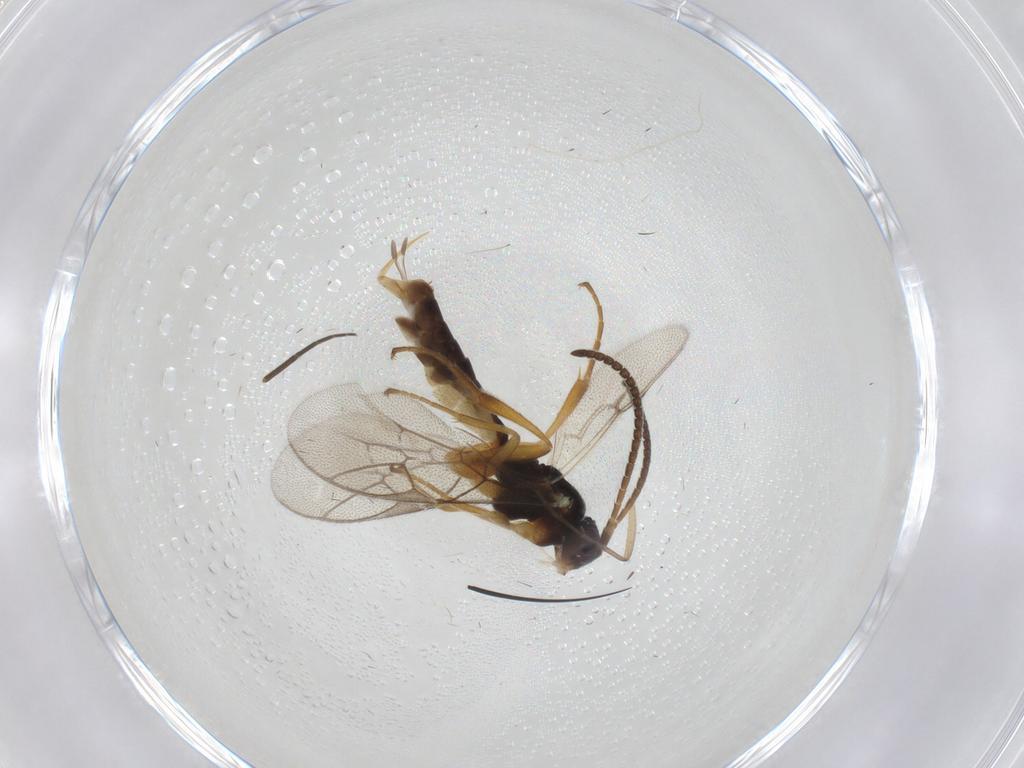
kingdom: Animalia
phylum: Arthropoda
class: Insecta
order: Hymenoptera
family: Ichneumonidae
